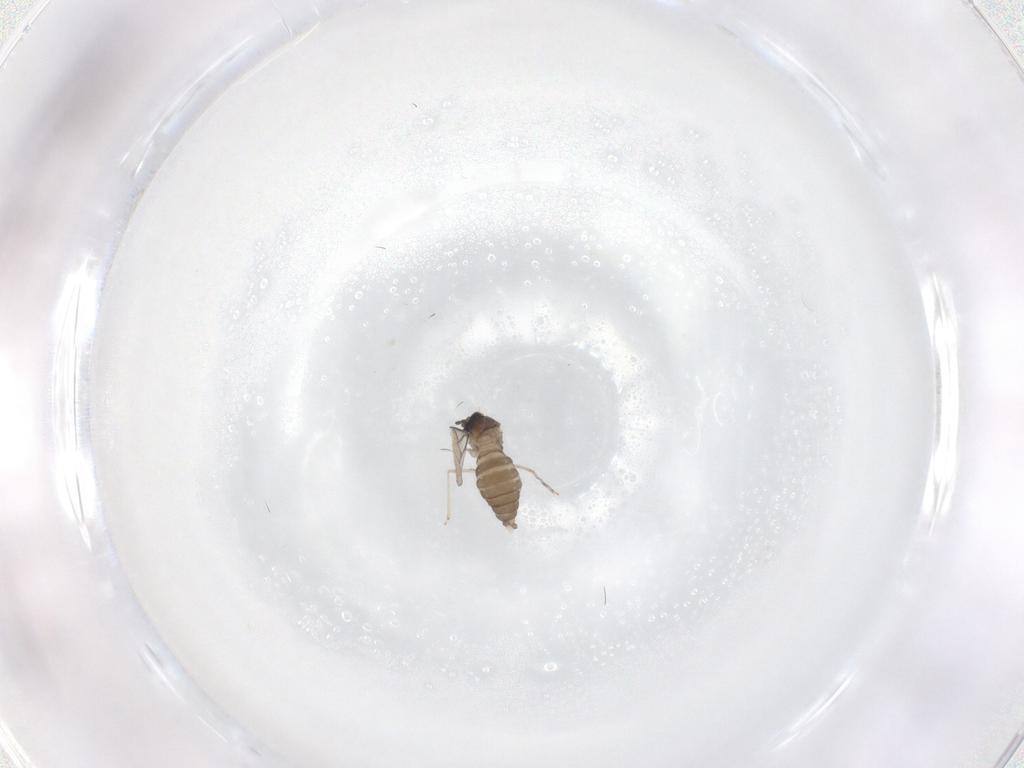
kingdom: Animalia
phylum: Arthropoda
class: Insecta
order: Diptera
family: Cecidomyiidae
